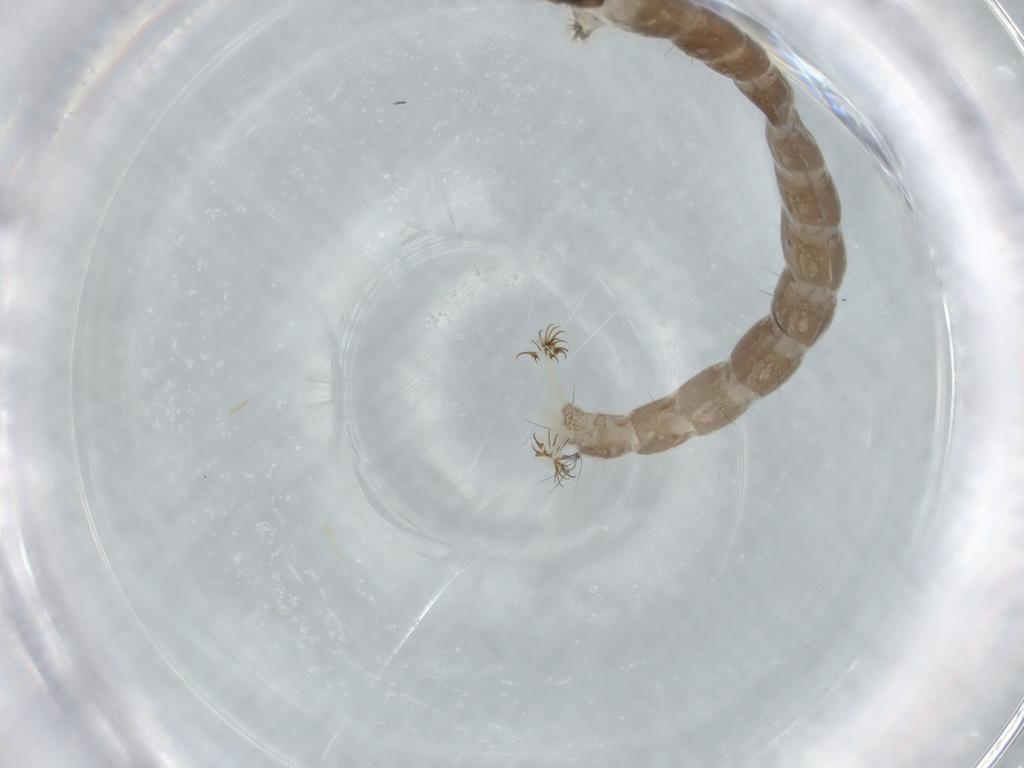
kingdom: Animalia
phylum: Arthropoda
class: Insecta
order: Diptera
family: Chironomidae
